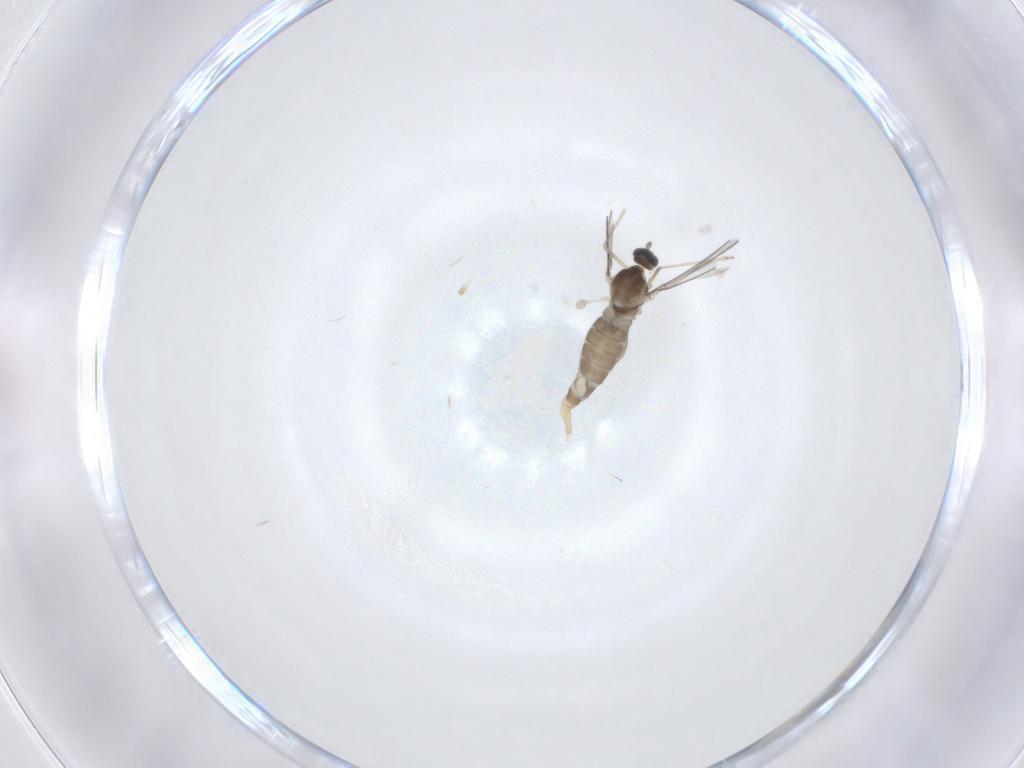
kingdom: Animalia
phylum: Arthropoda
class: Insecta
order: Diptera
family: Cecidomyiidae
